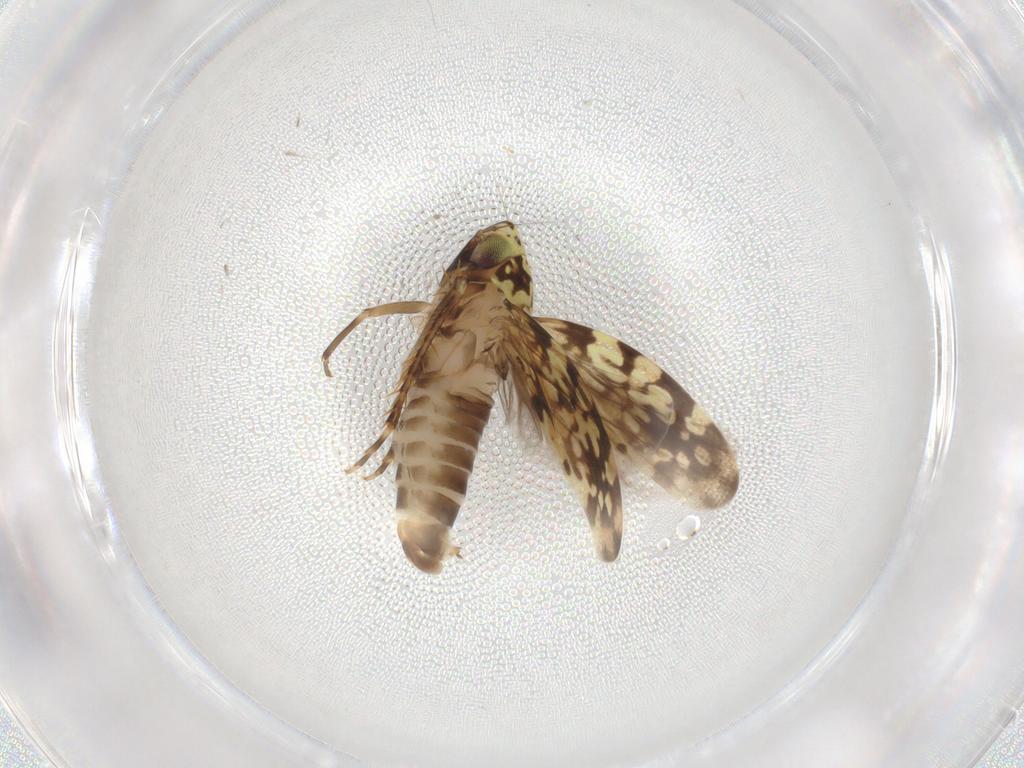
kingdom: Animalia
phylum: Arthropoda
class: Insecta
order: Hemiptera
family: Aleyrodidae
